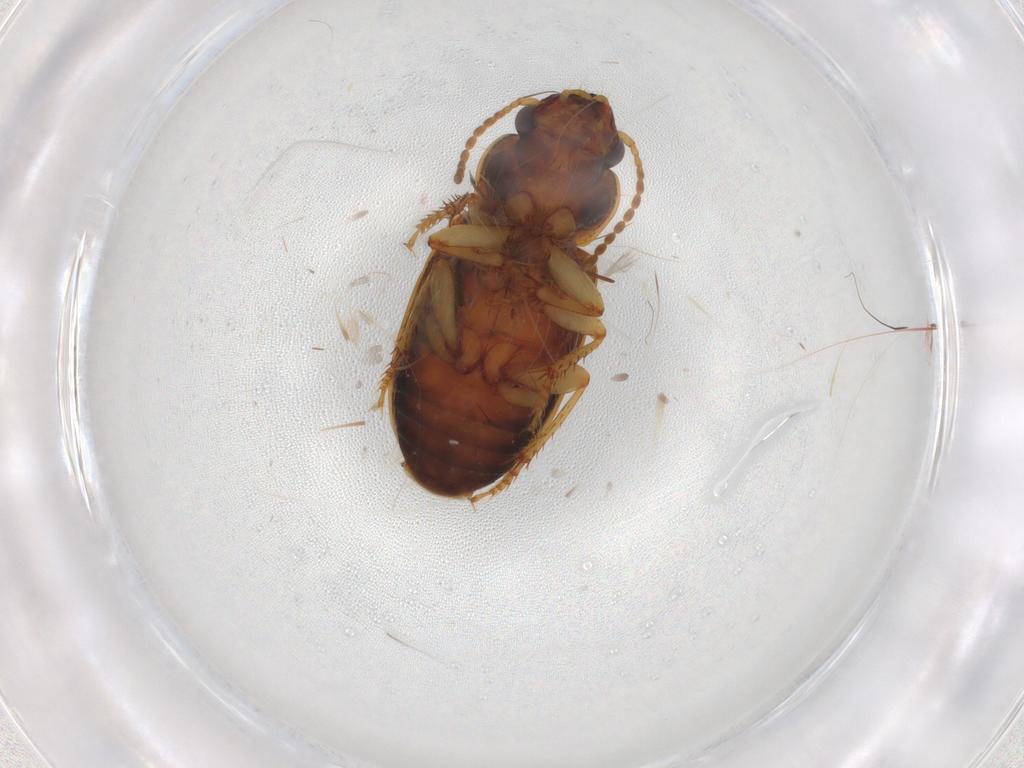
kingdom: Animalia
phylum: Arthropoda
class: Insecta
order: Coleoptera
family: Carabidae
